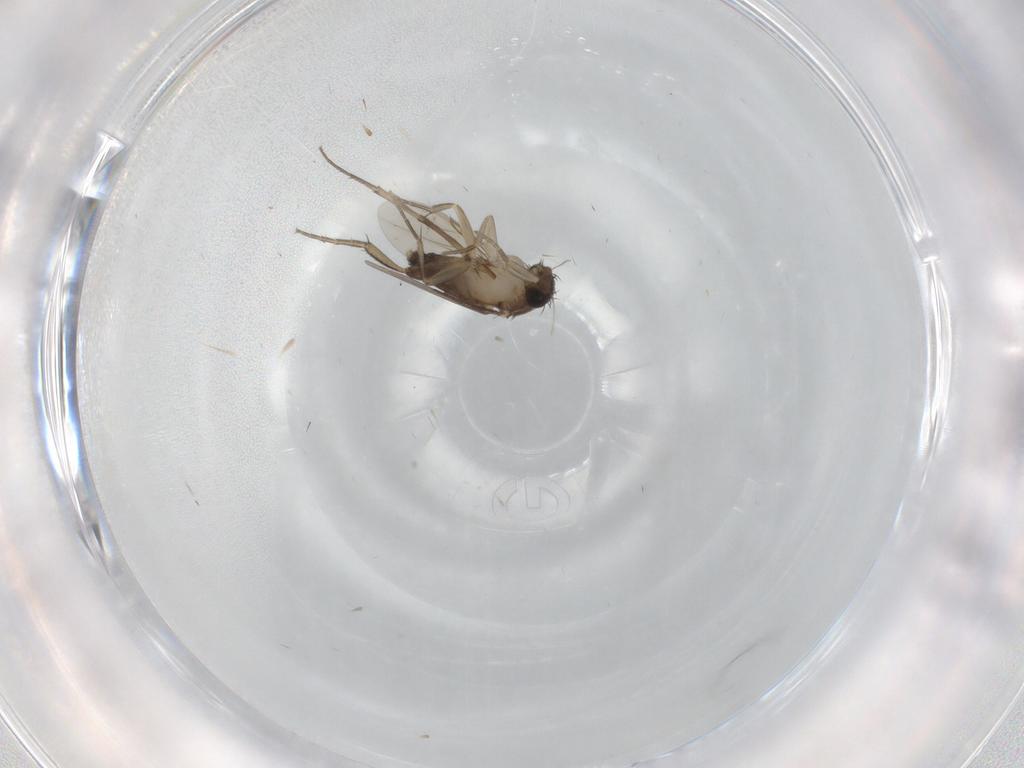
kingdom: Animalia
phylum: Arthropoda
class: Insecta
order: Diptera
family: Phoridae
